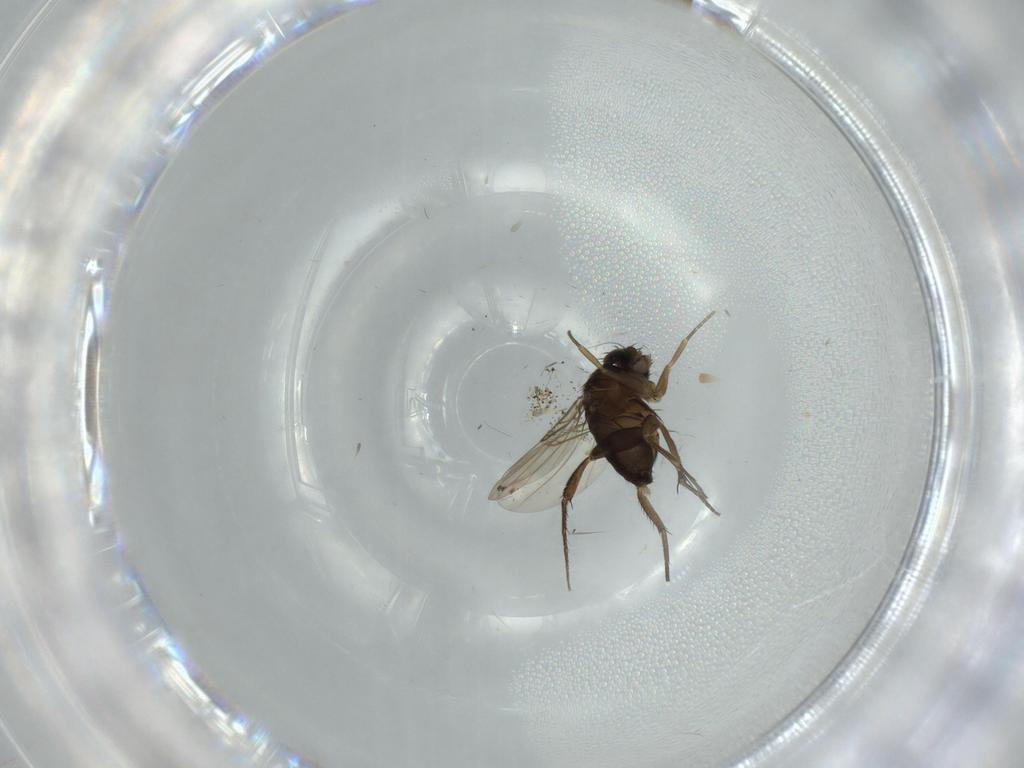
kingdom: Animalia
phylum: Arthropoda
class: Insecta
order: Diptera
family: Phoridae
